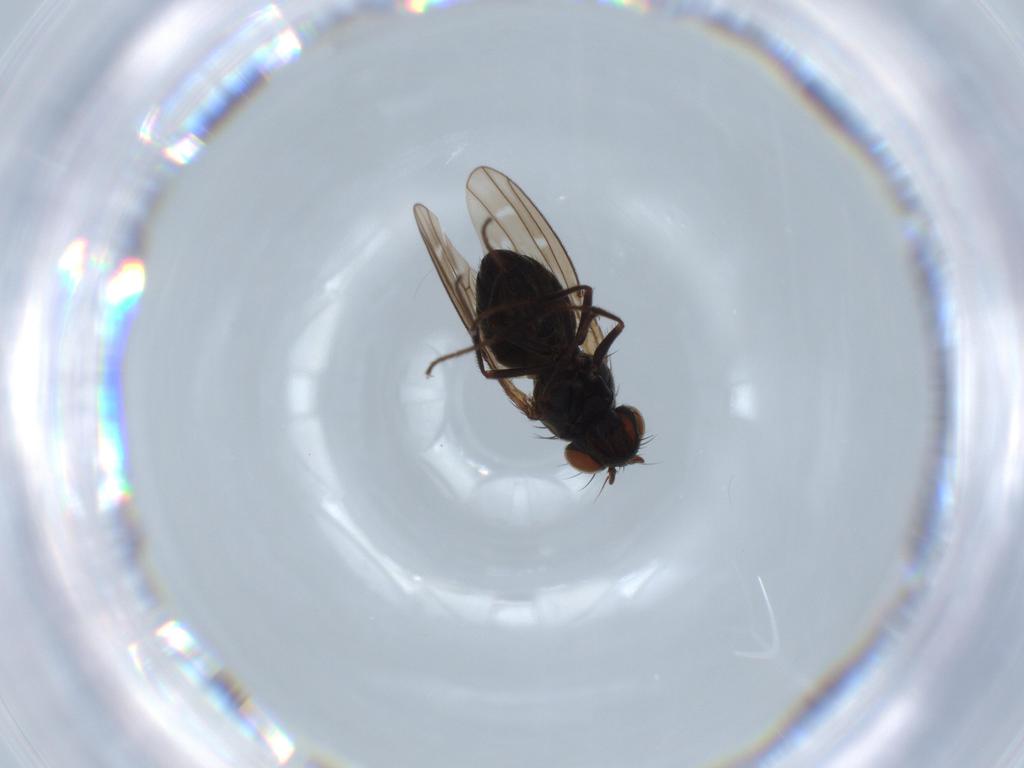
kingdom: Animalia
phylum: Arthropoda
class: Insecta
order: Diptera
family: Ephydridae
